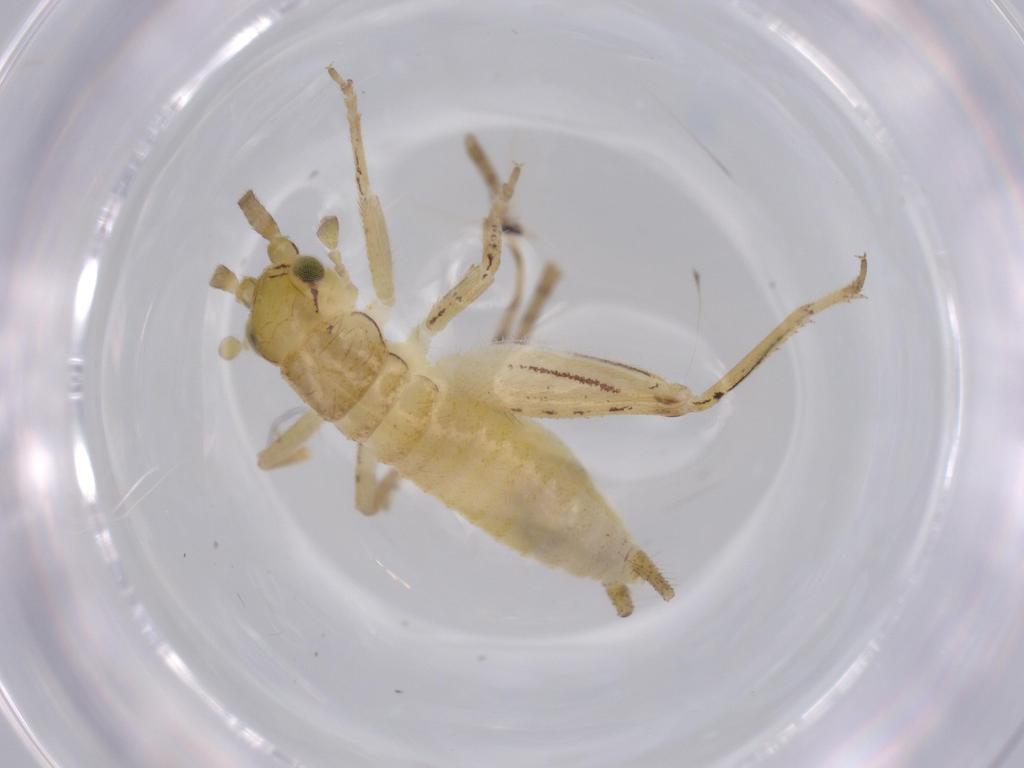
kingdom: Animalia
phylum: Arthropoda
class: Insecta
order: Orthoptera
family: Gryllidae
